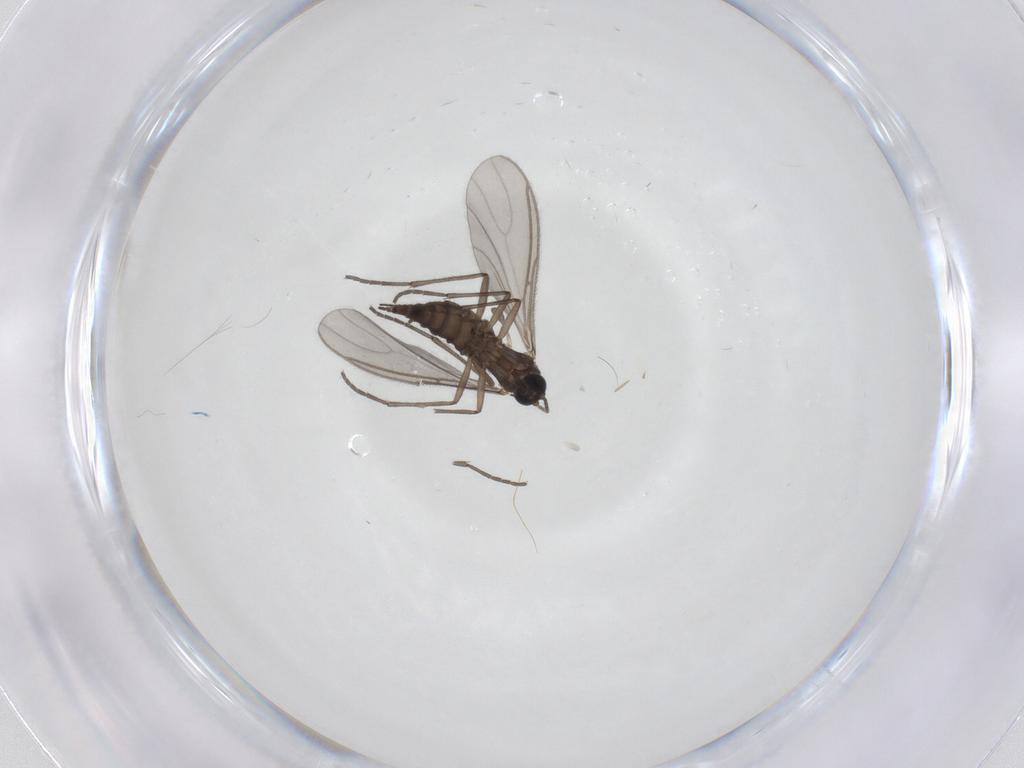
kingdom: Animalia
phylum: Arthropoda
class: Insecta
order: Diptera
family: Sciaridae
